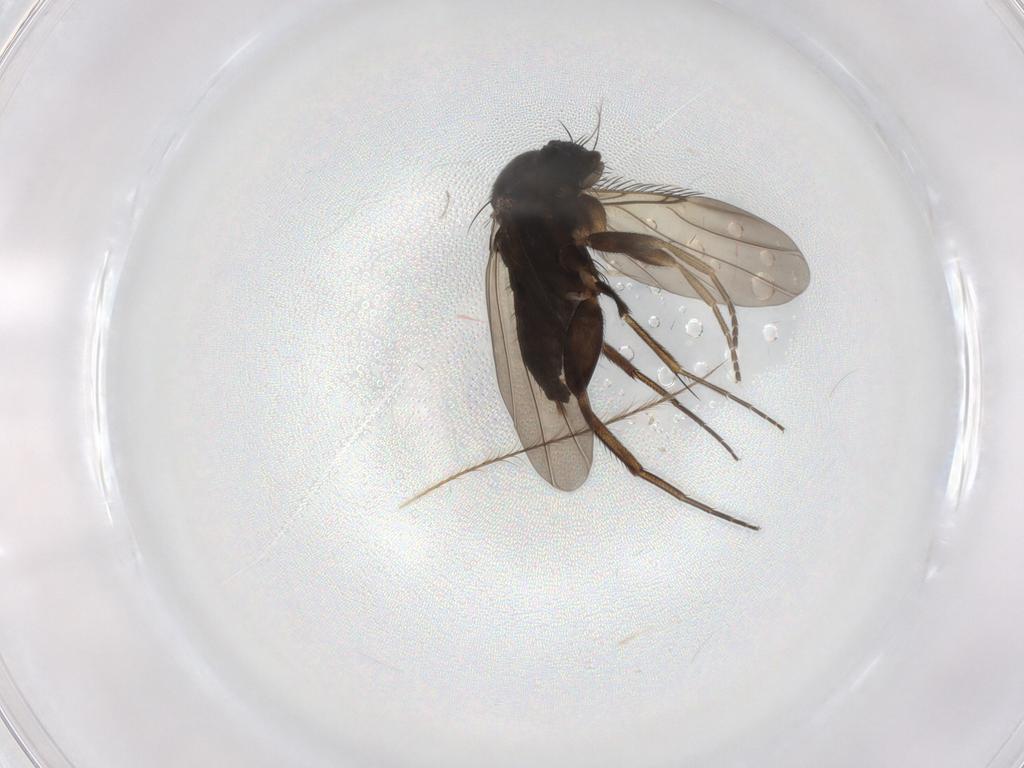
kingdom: Animalia
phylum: Arthropoda
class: Insecta
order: Diptera
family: Phoridae
